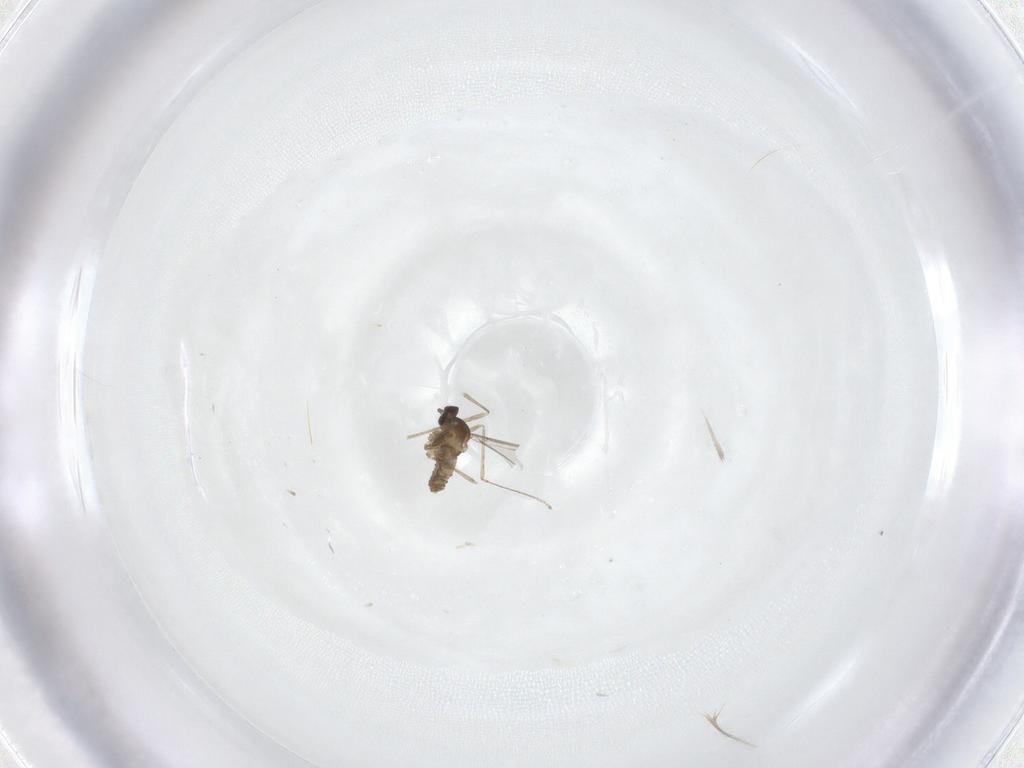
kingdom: Animalia
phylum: Arthropoda
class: Insecta
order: Diptera
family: Cecidomyiidae
